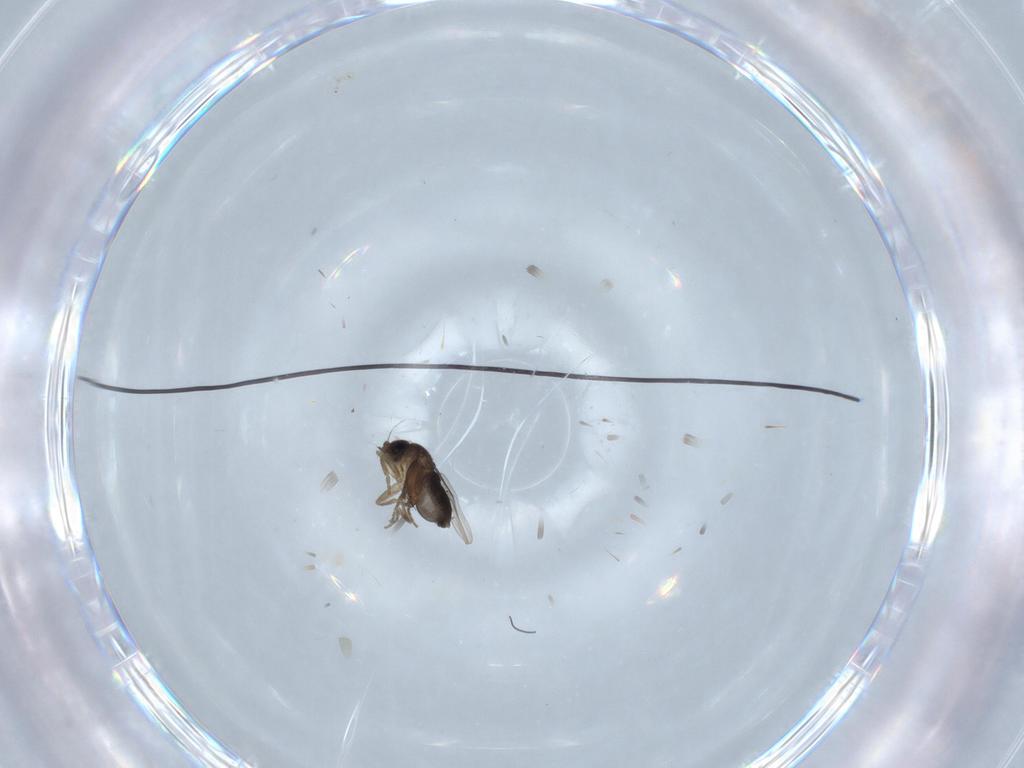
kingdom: Animalia
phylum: Arthropoda
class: Insecta
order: Diptera
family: Phoridae
